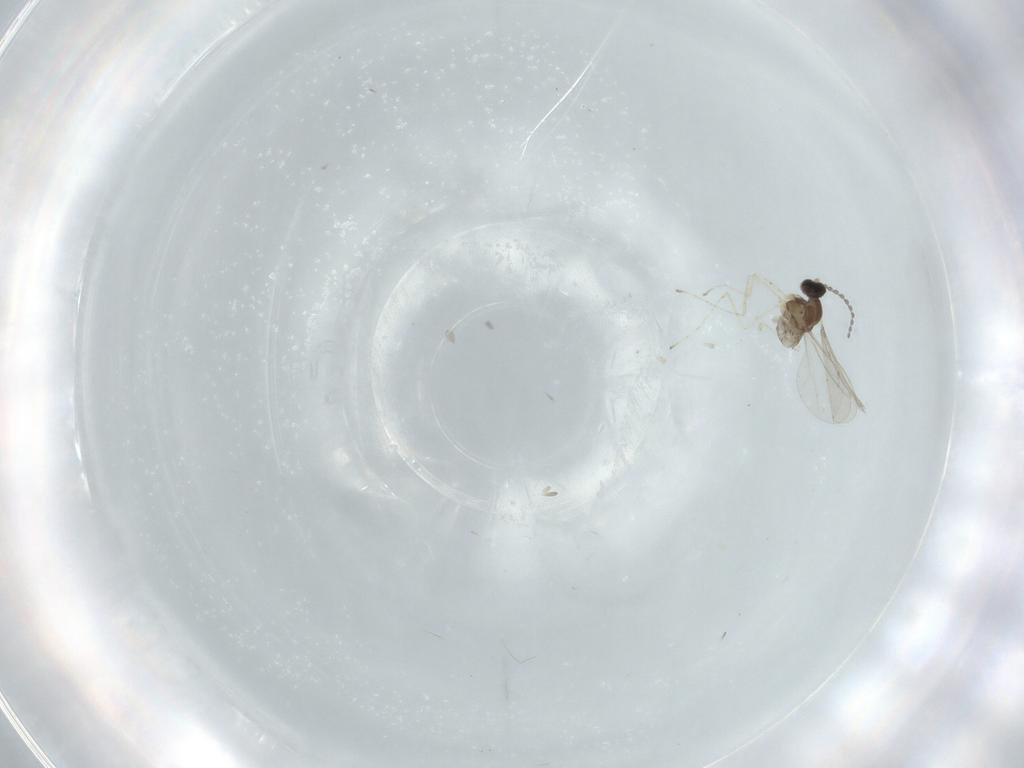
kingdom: Animalia
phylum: Arthropoda
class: Insecta
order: Diptera
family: Cecidomyiidae
